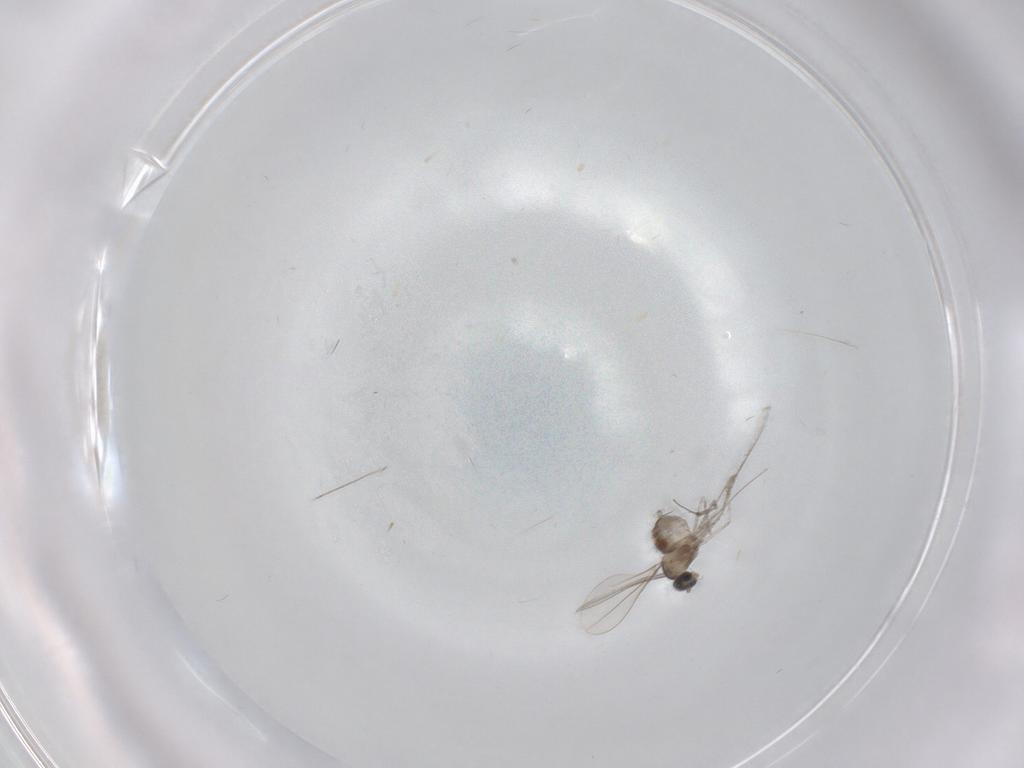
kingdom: Animalia
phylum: Arthropoda
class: Insecta
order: Diptera
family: Cecidomyiidae
